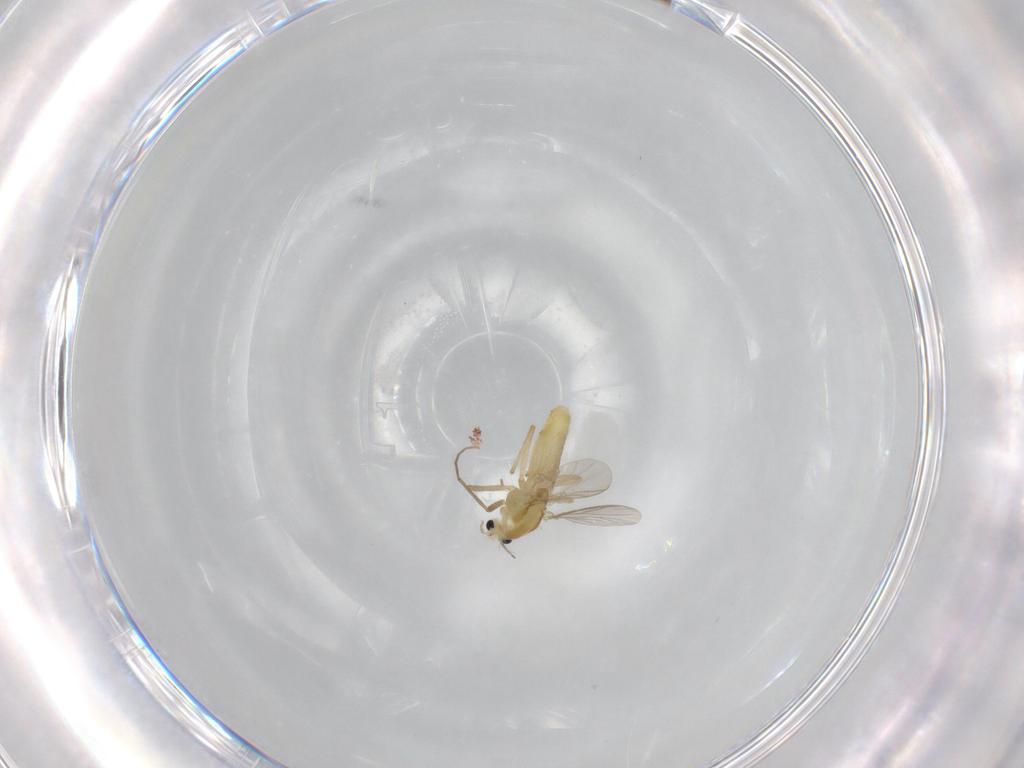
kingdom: Animalia
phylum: Arthropoda
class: Insecta
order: Diptera
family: Chironomidae
